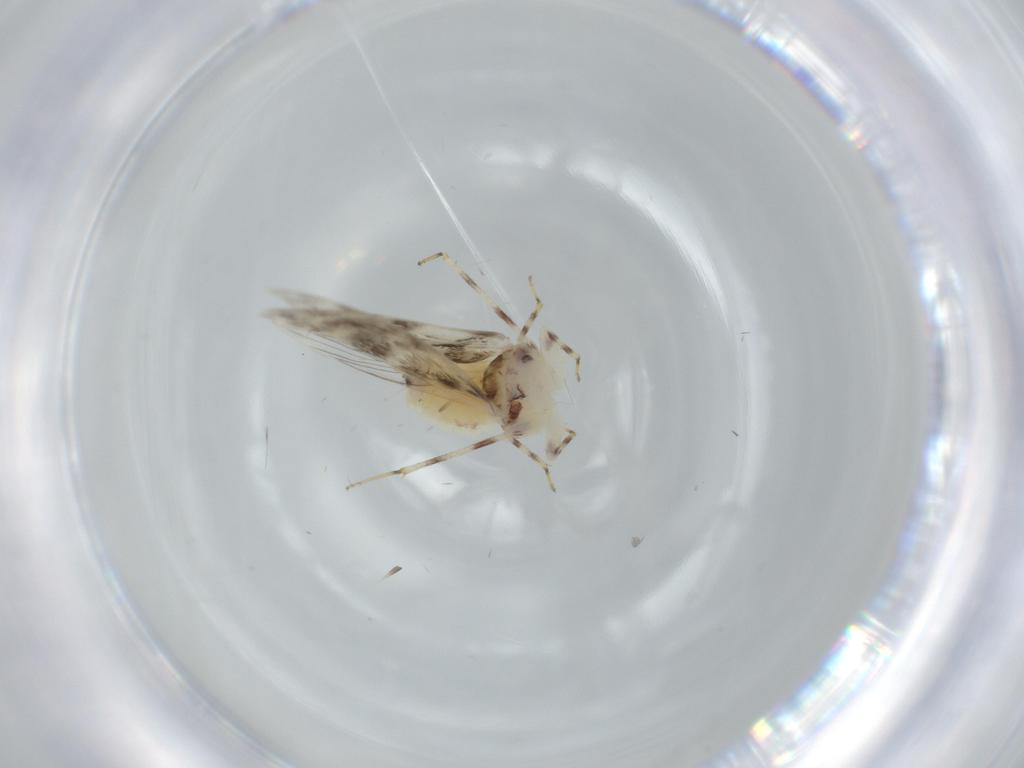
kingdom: Animalia
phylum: Arthropoda
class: Insecta
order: Psocodea
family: Lepidopsocidae
